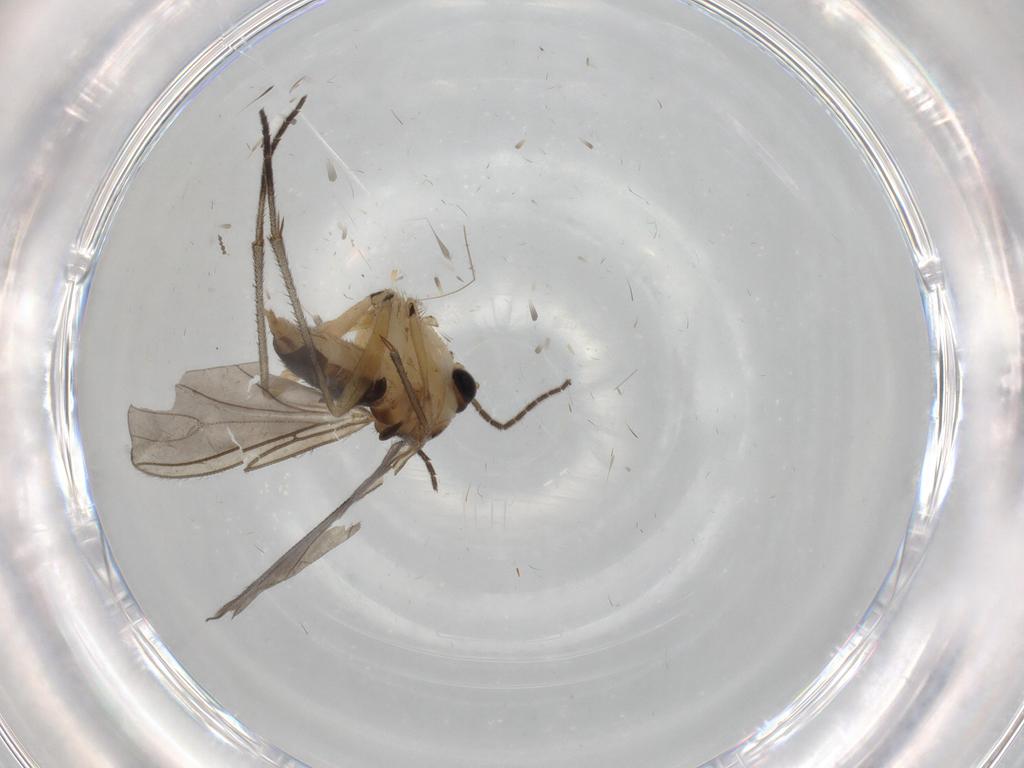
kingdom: Animalia
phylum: Arthropoda
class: Insecta
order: Diptera
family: Sciaridae
